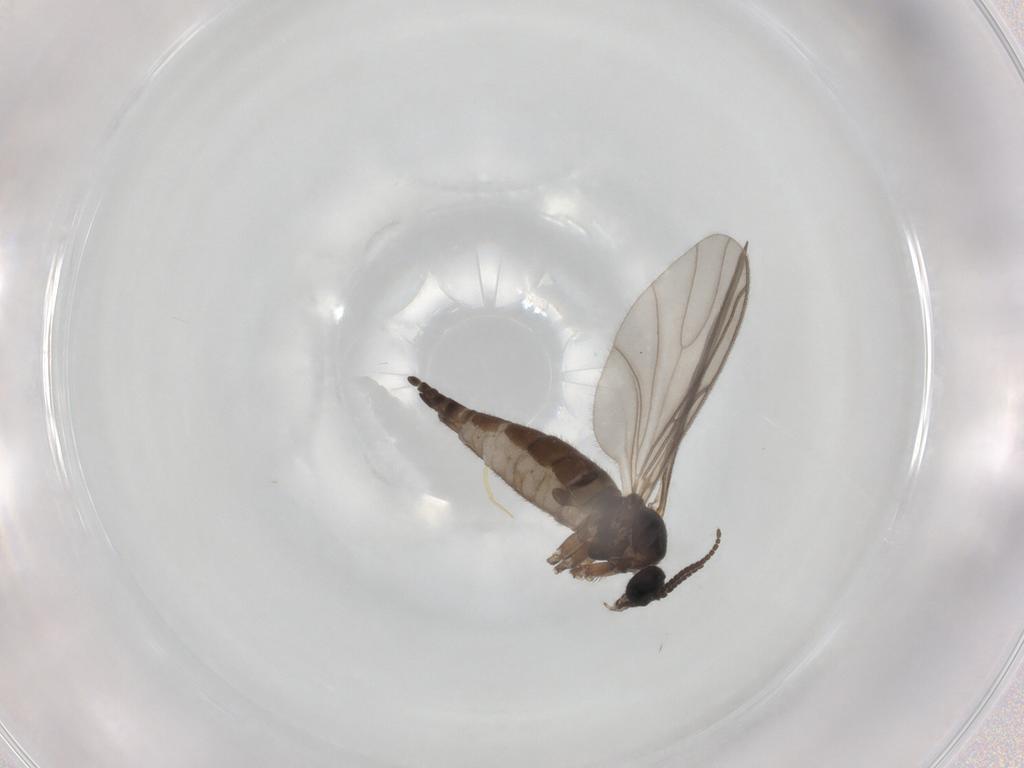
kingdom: Animalia
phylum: Arthropoda
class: Insecta
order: Diptera
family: Sciaridae
